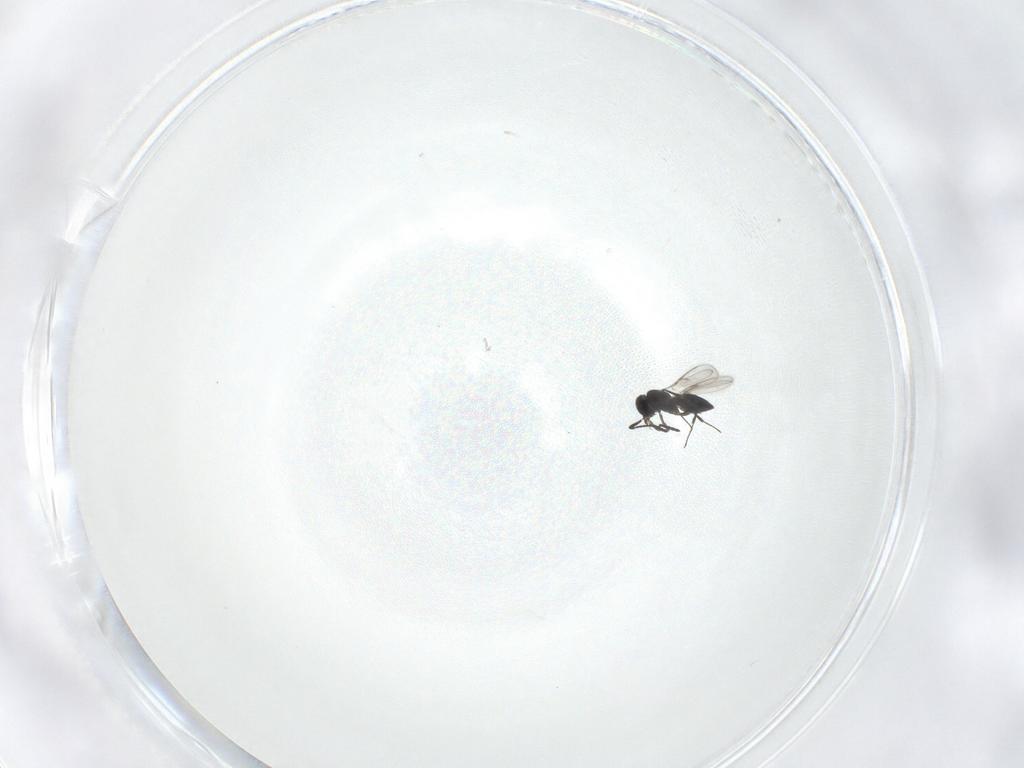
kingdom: Animalia
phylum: Arthropoda
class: Insecta
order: Hymenoptera
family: Scelionidae
